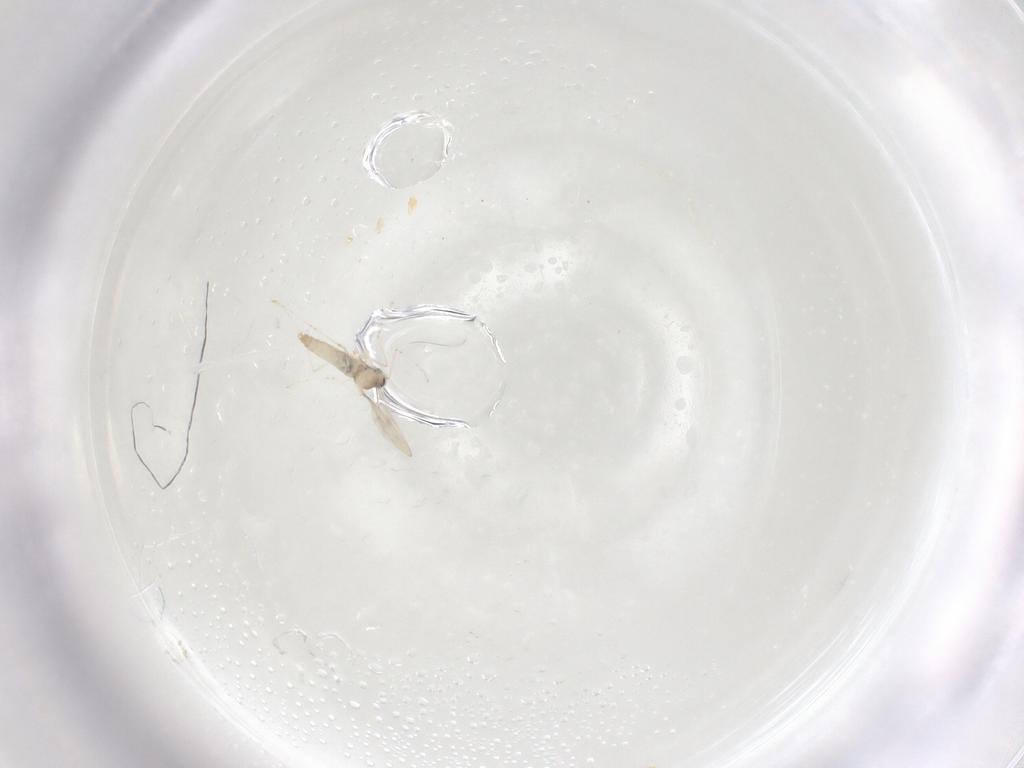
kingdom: Animalia
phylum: Arthropoda
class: Insecta
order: Diptera
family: Cecidomyiidae
